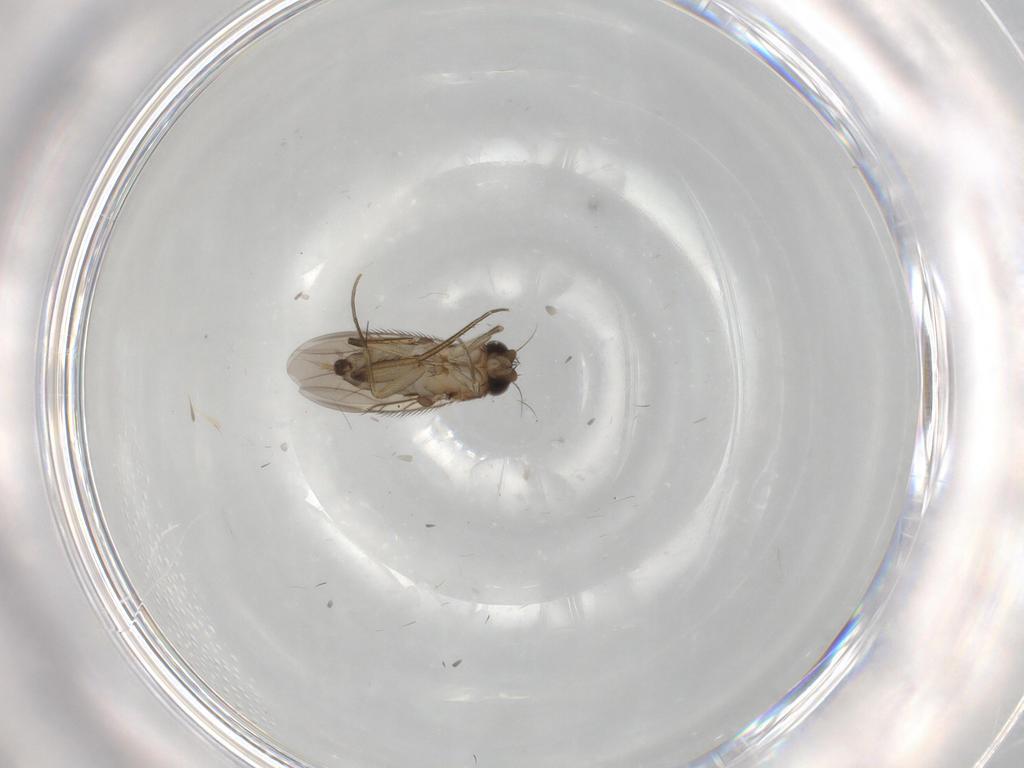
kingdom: Animalia
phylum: Arthropoda
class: Insecta
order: Diptera
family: Phoridae
